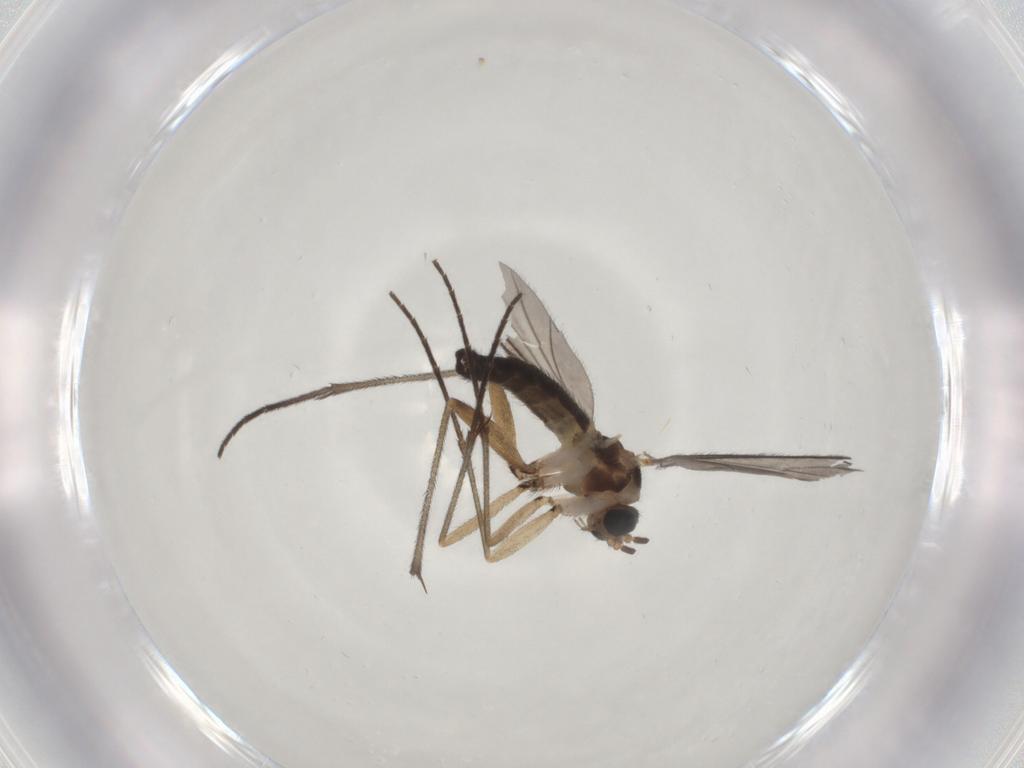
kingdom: Animalia
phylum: Arthropoda
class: Insecta
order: Diptera
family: Sciaridae
